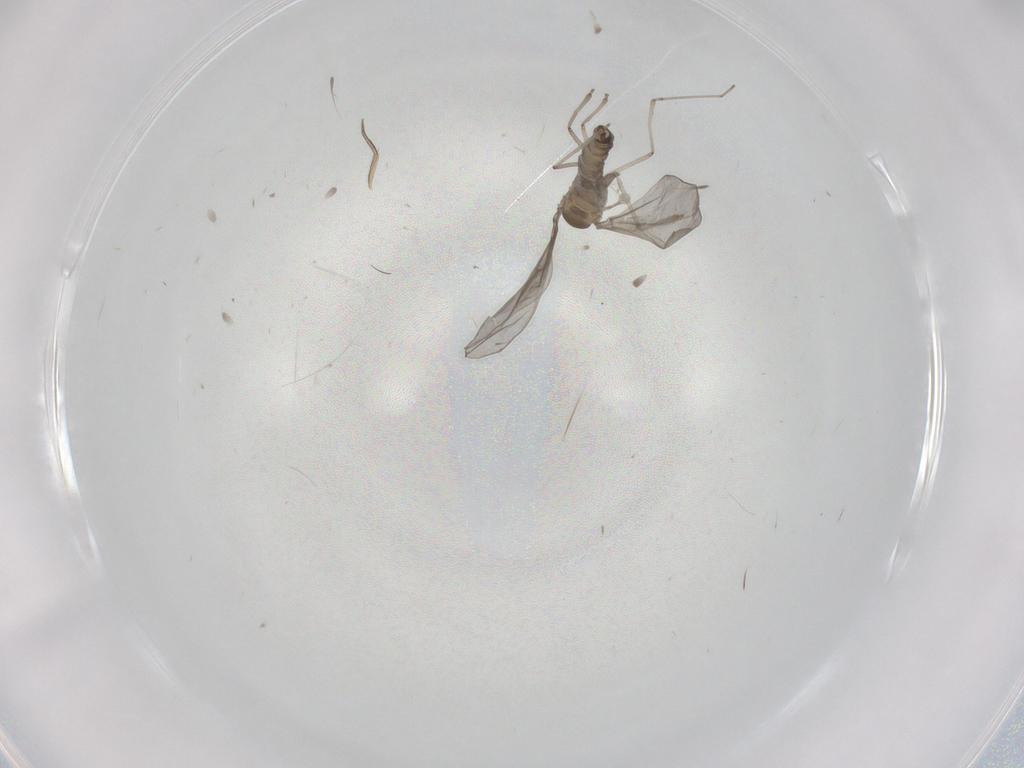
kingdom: Animalia
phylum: Arthropoda
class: Insecta
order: Diptera
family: Cecidomyiidae
